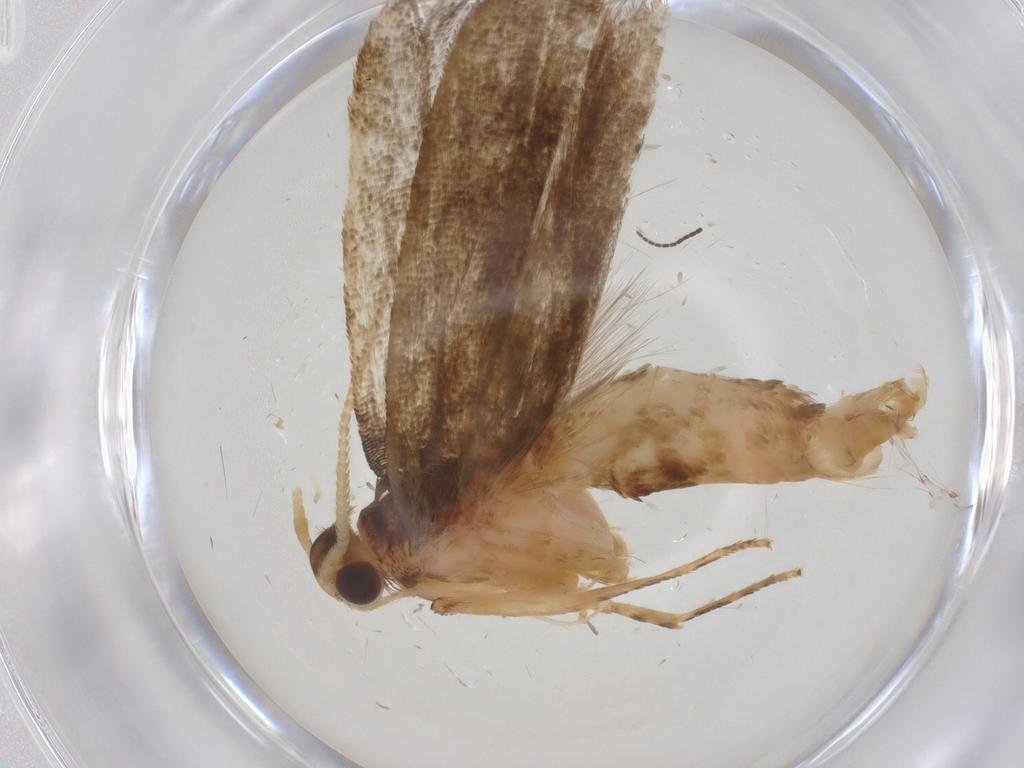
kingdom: Animalia
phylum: Arthropoda
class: Insecta
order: Lepidoptera
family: Lecithoceridae
